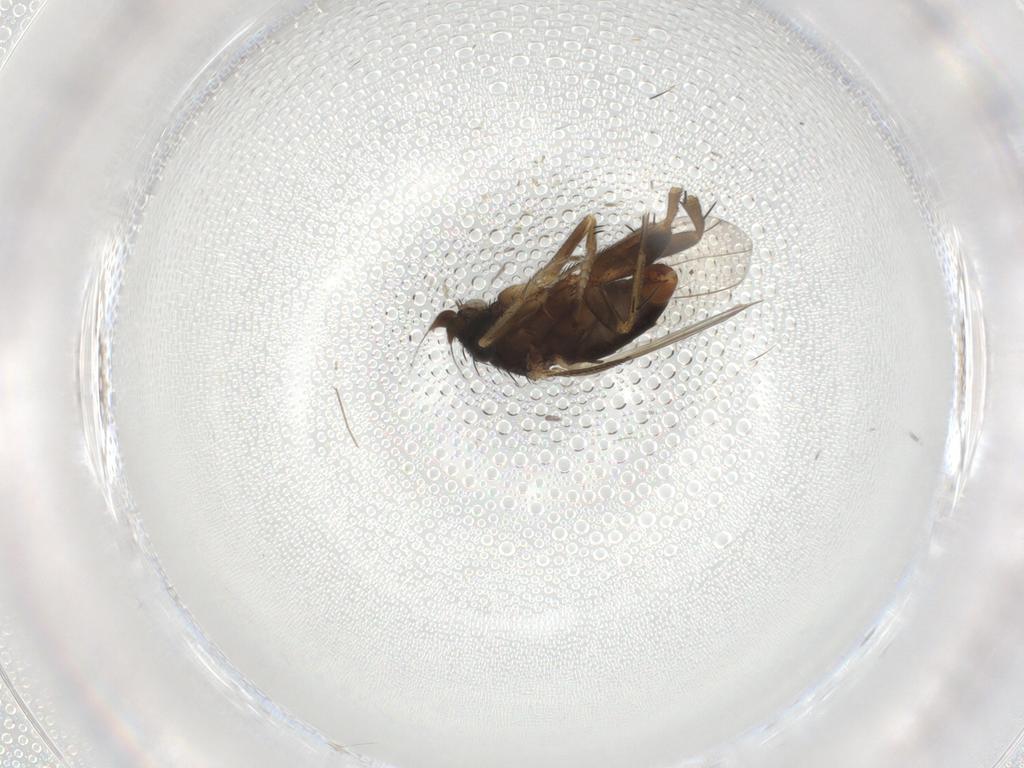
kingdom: Animalia
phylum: Arthropoda
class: Insecta
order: Diptera
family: Phoridae
